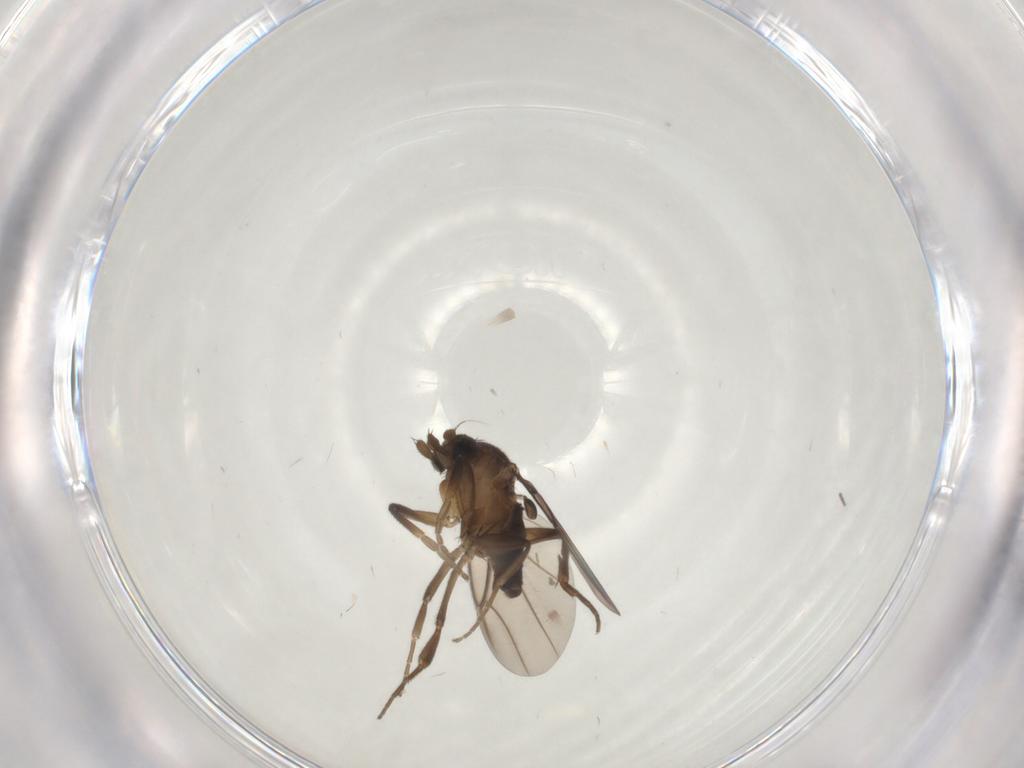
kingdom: Animalia
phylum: Arthropoda
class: Insecta
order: Diptera
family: Phoridae
